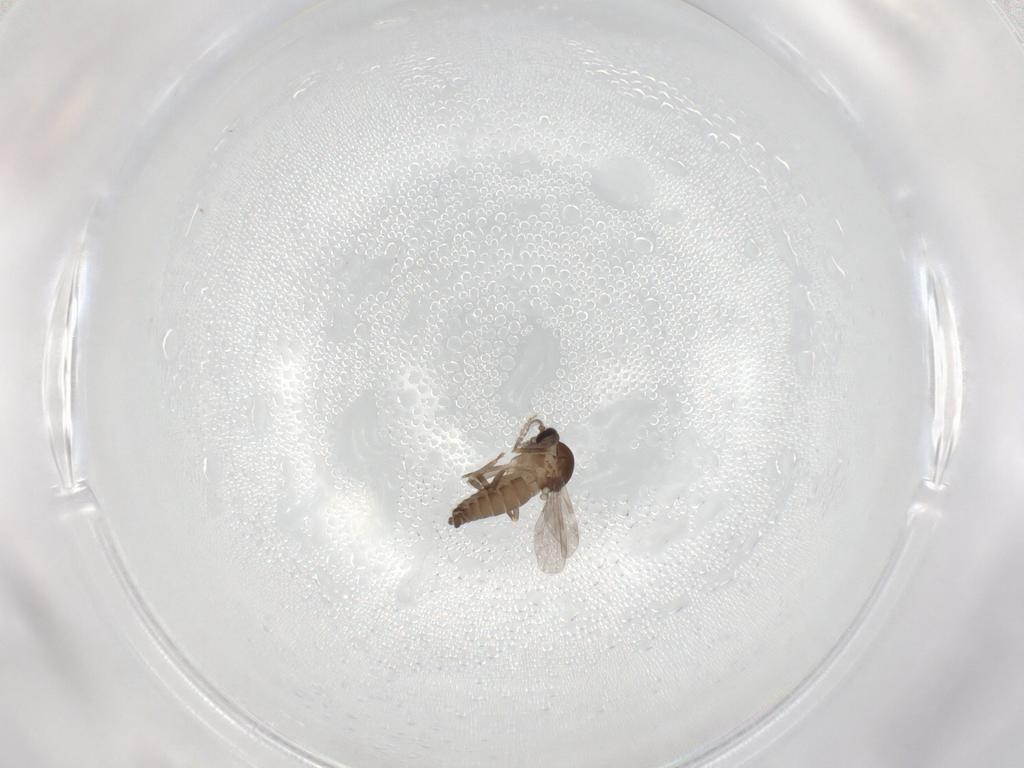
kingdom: Animalia
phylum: Arthropoda
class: Insecta
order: Diptera
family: Ceratopogonidae
